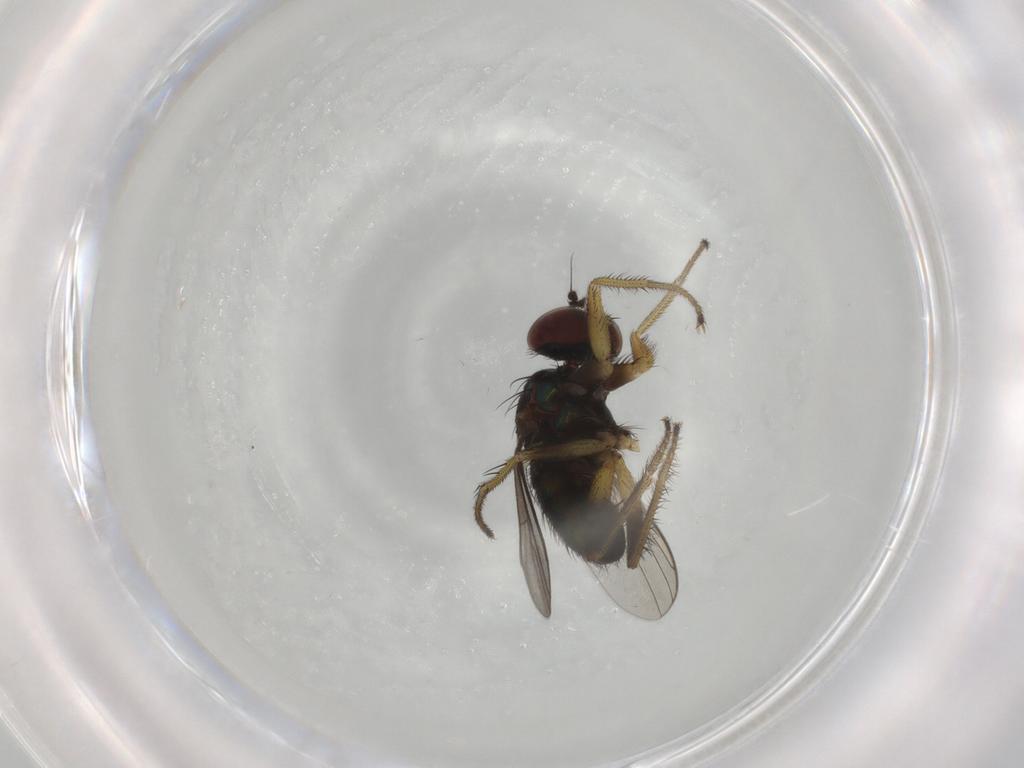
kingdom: Animalia
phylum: Arthropoda
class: Insecta
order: Diptera
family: Dolichopodidae
